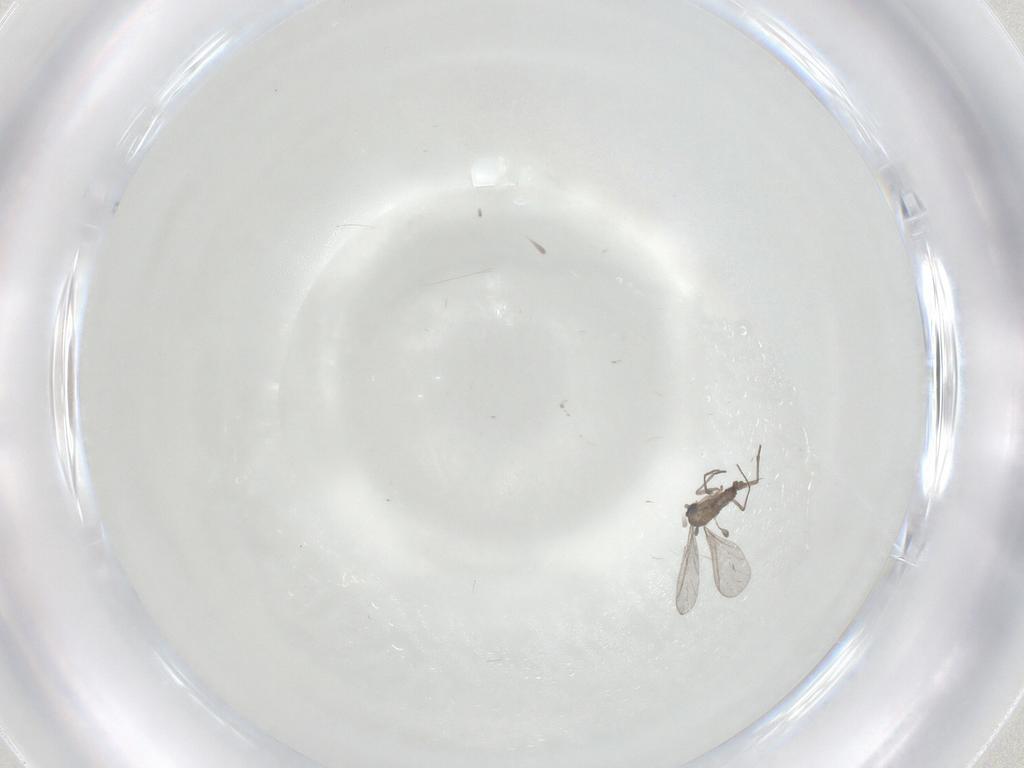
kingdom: Animalia
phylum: Arthropoda
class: Insecta
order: Diptera
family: Sciaridae
